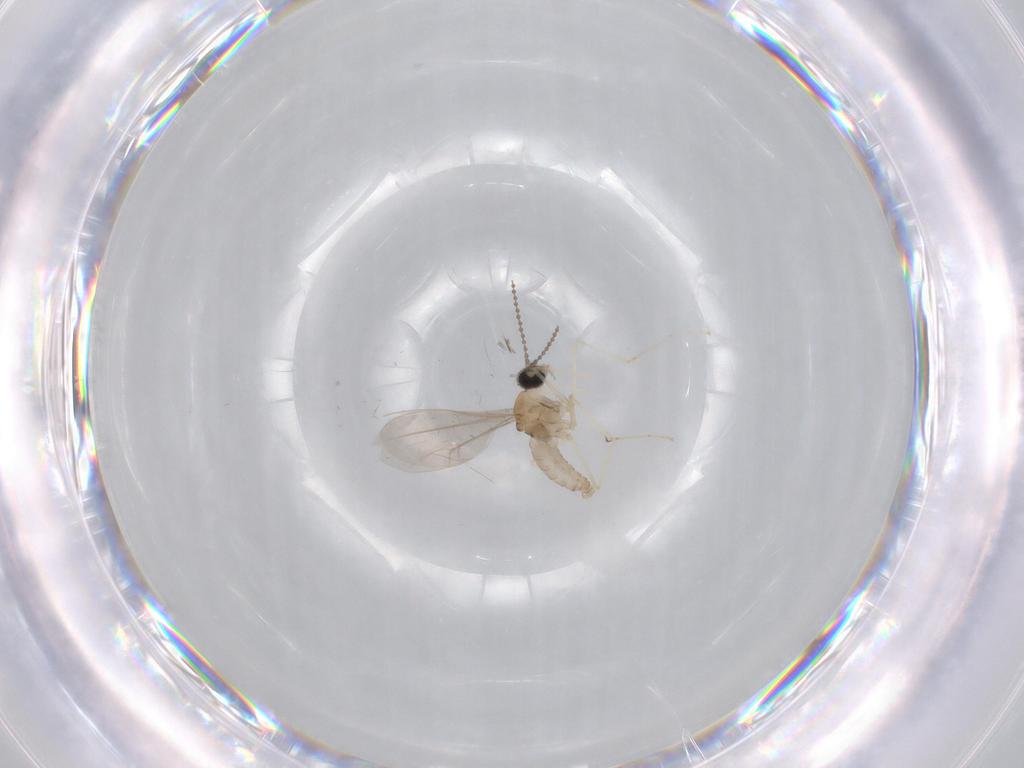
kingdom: Animalia
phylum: Arthropoda
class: Insecta
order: Diptera
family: Cecidomyiidae
